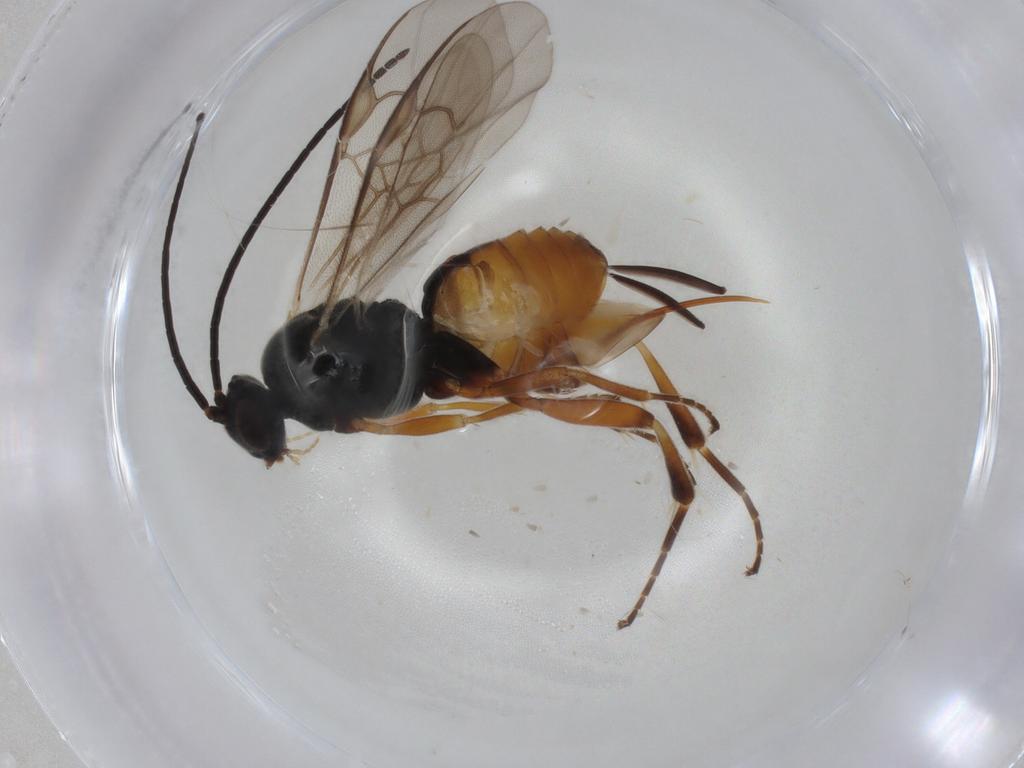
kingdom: Animalia
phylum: Arthropoda
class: Insecta
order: Hymenoptera
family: Braconidae
